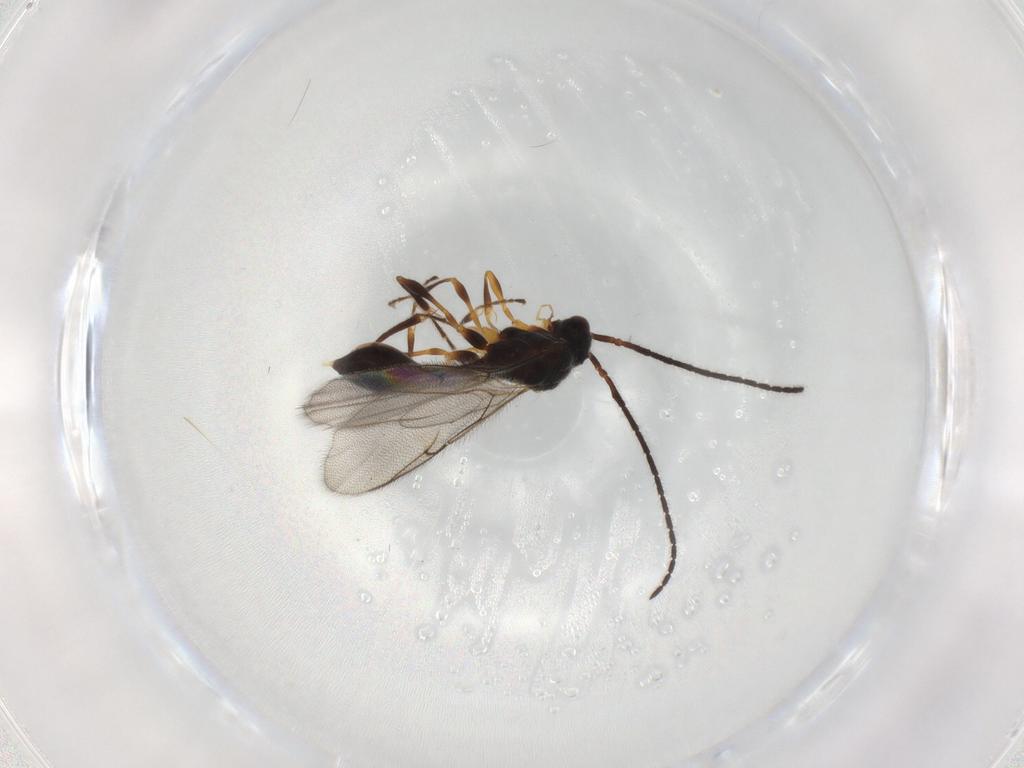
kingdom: Animalia
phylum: Arthropoda
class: Insecta
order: Hymenoptera
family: Diapriidae
